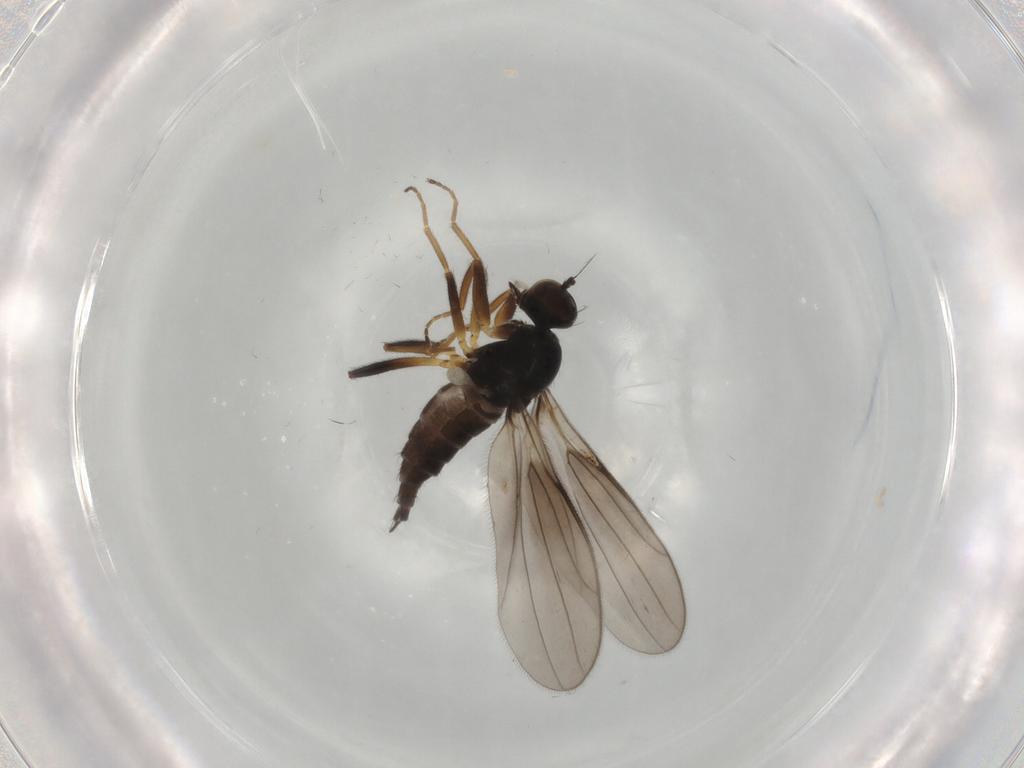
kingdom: Animalia
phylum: Arthropoda
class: Insecta
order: Diptera
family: Hybotidae
